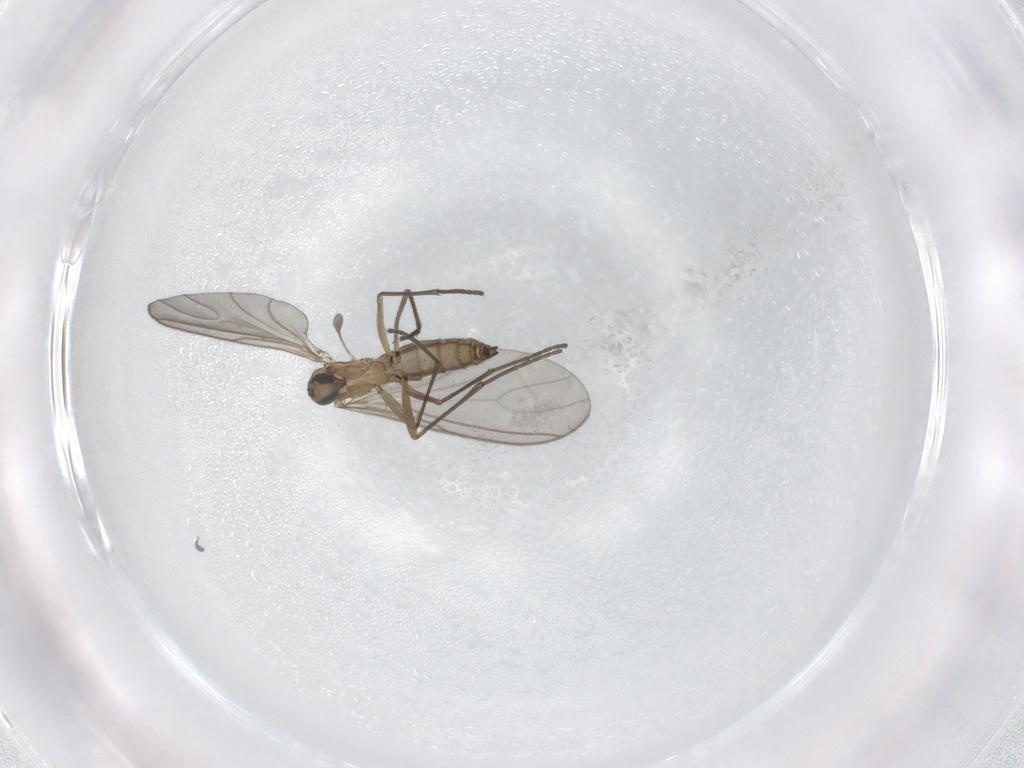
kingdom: Animalia
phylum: Arthropoda
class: Insecta
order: Diptera
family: Sciaridae
